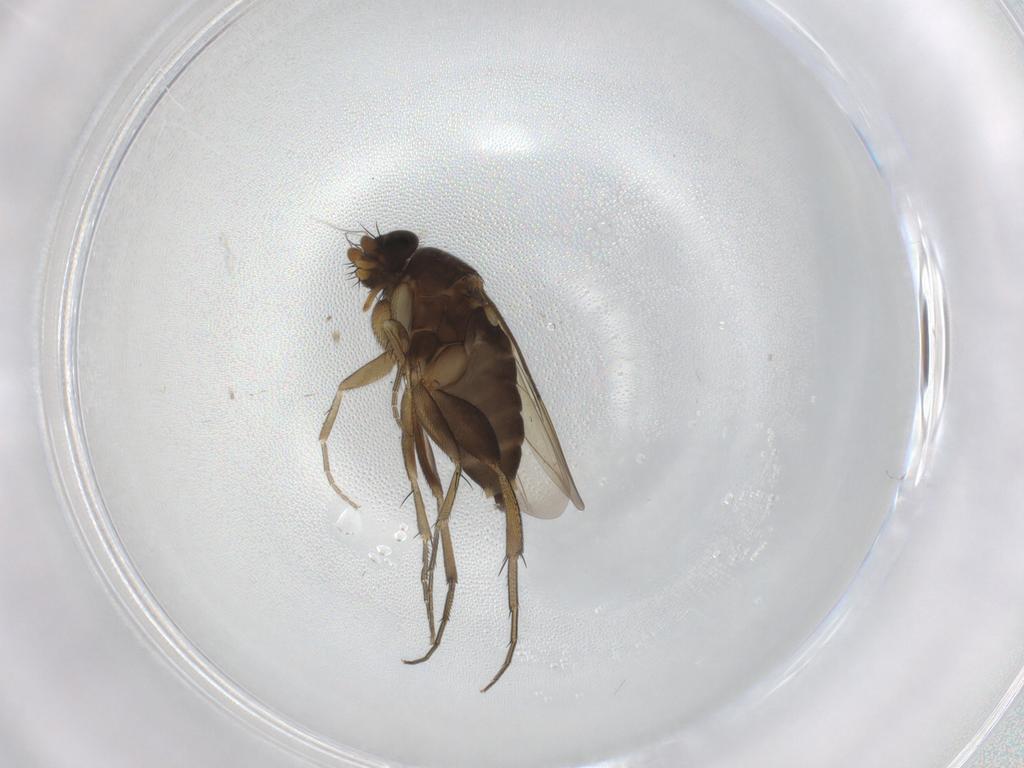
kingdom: Animalia
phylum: Arthropoda
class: Insecta
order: Diptera
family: Phoridae
